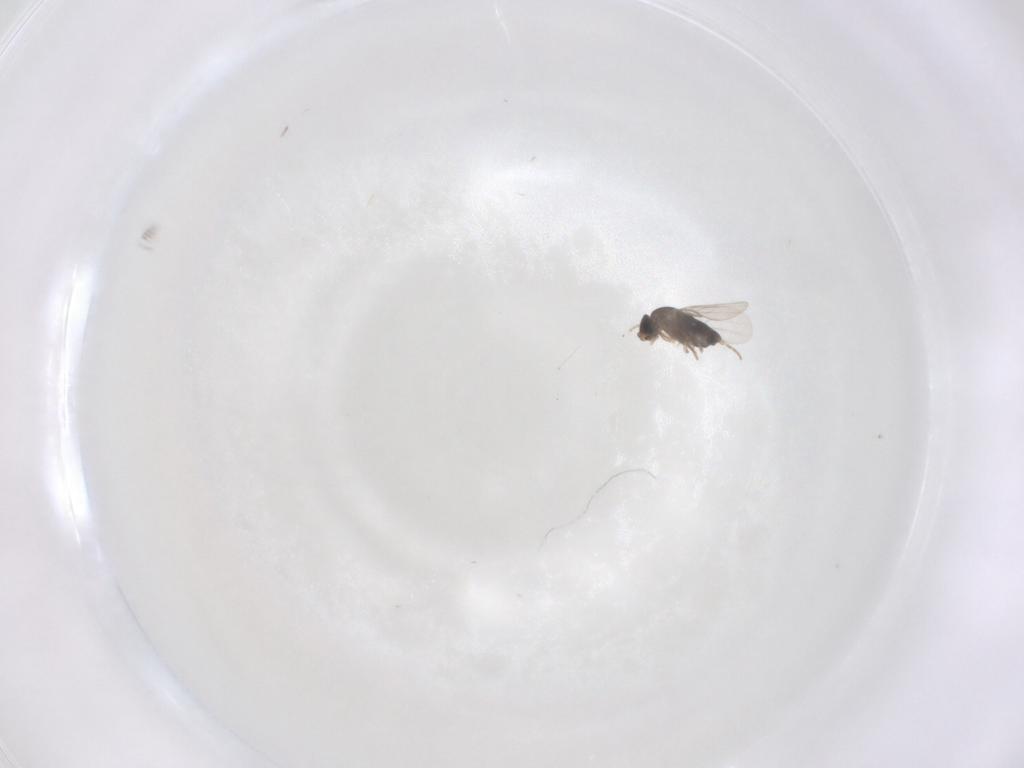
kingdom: Animalia
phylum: Arthropoda
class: Insecta
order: Diptera
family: Phoridae
